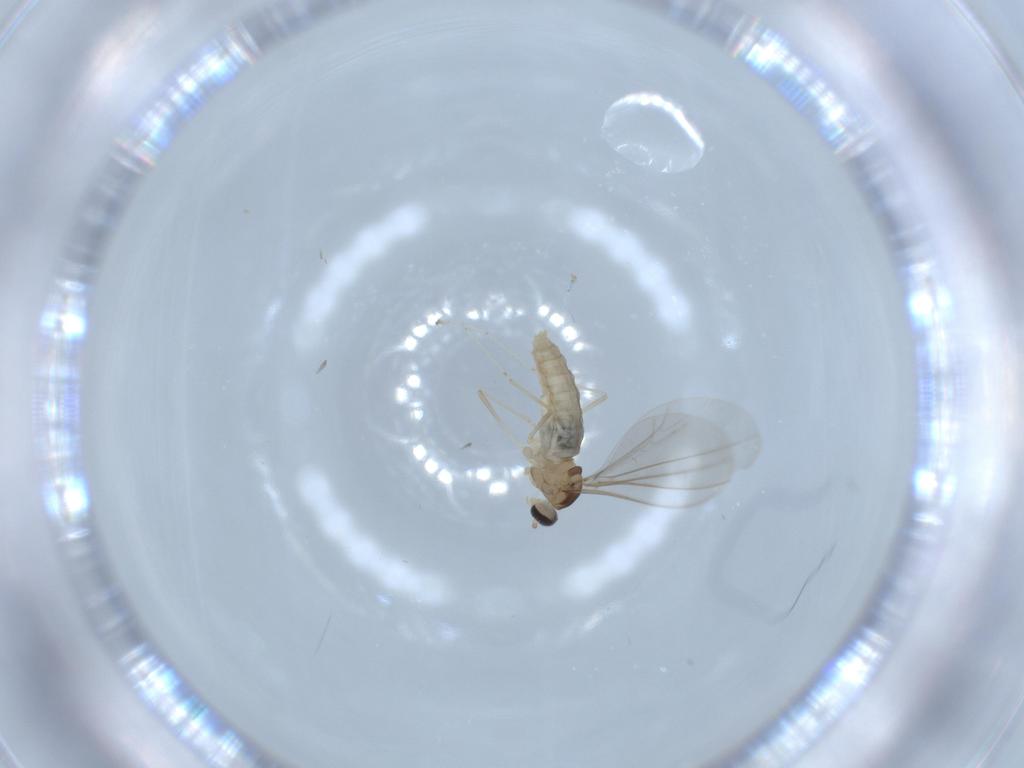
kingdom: Animalia
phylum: Arthropoda
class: Insecta
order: Diptera
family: Cecidomyiidae
